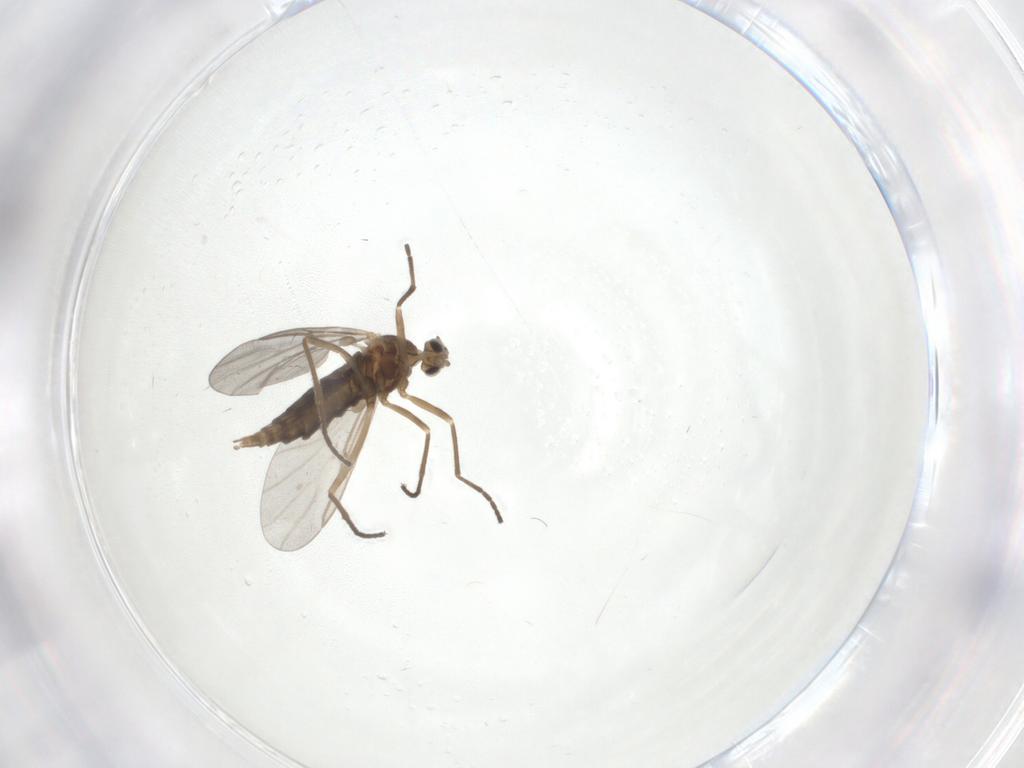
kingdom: Animalia
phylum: Arthropoda
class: Insecta
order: Diptera
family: Cecidomyiidae
